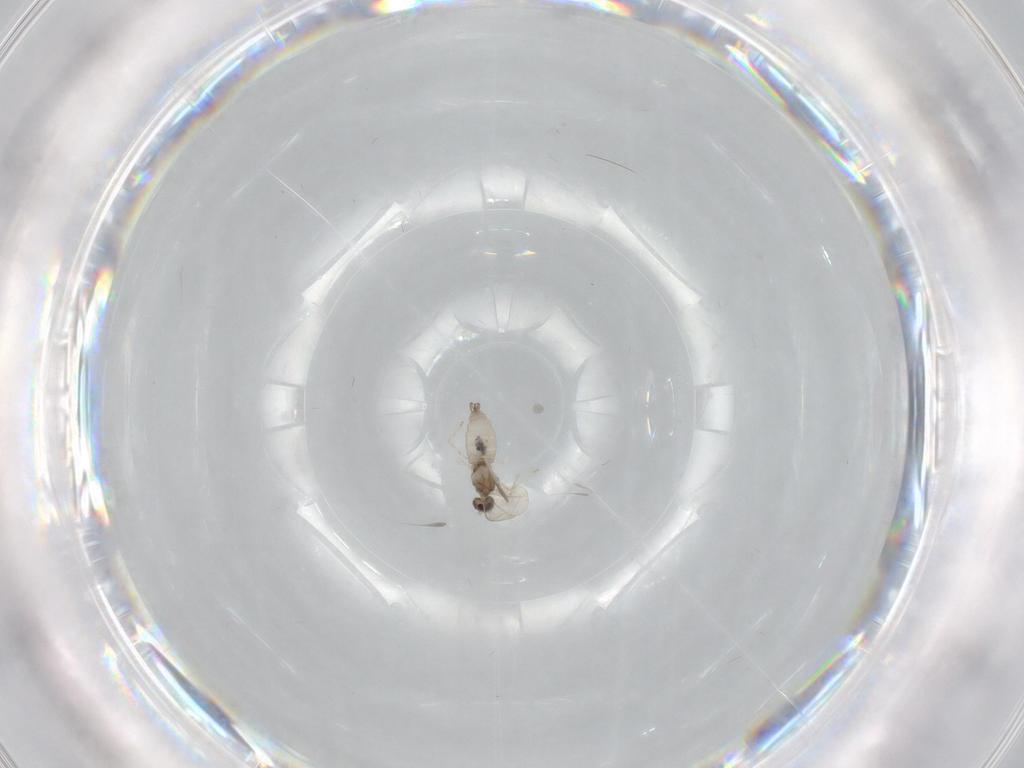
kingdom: Animalia
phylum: Arthropoda
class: Insecta
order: Diptera
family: Cecidomyiidae
